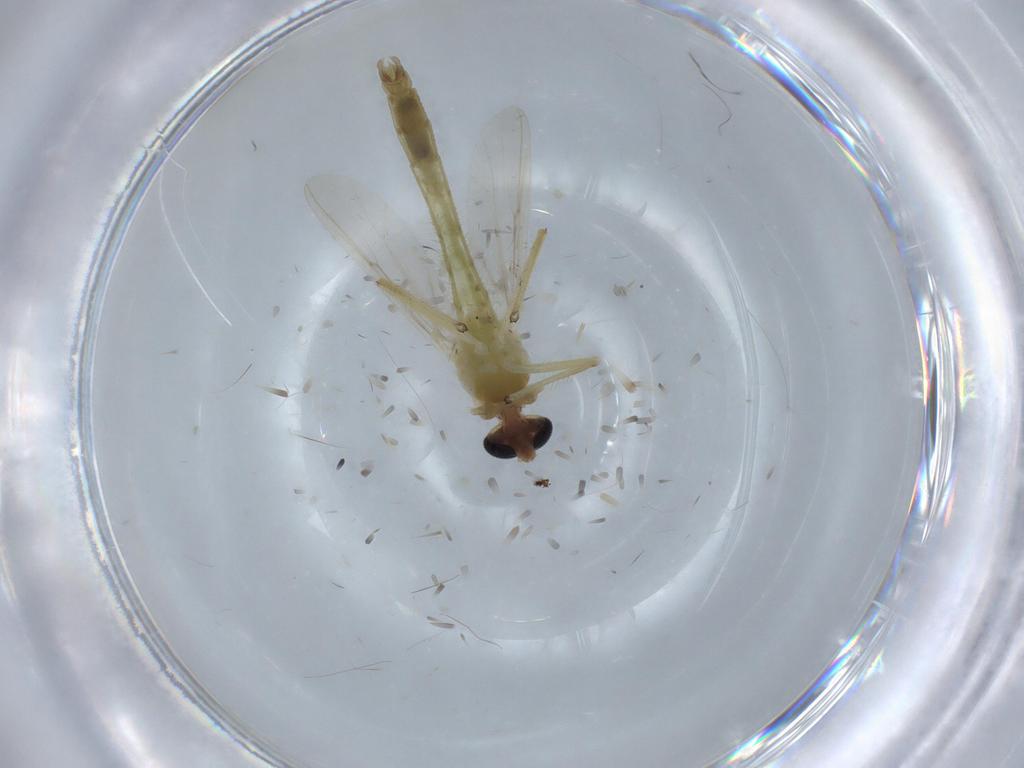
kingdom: Animalia
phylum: Arthropoda
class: Insecta
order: Diptera
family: Chironomidae
